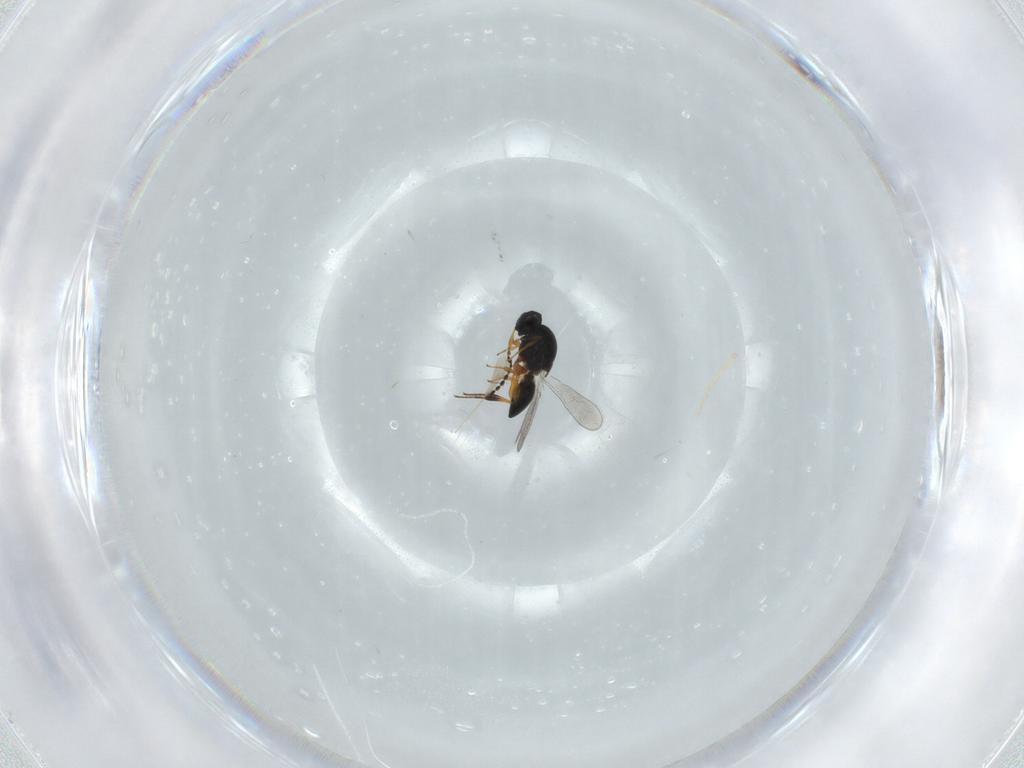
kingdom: Animalia
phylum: Arthropoda
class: Insecta
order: Hymenoptera
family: Platygastridae
